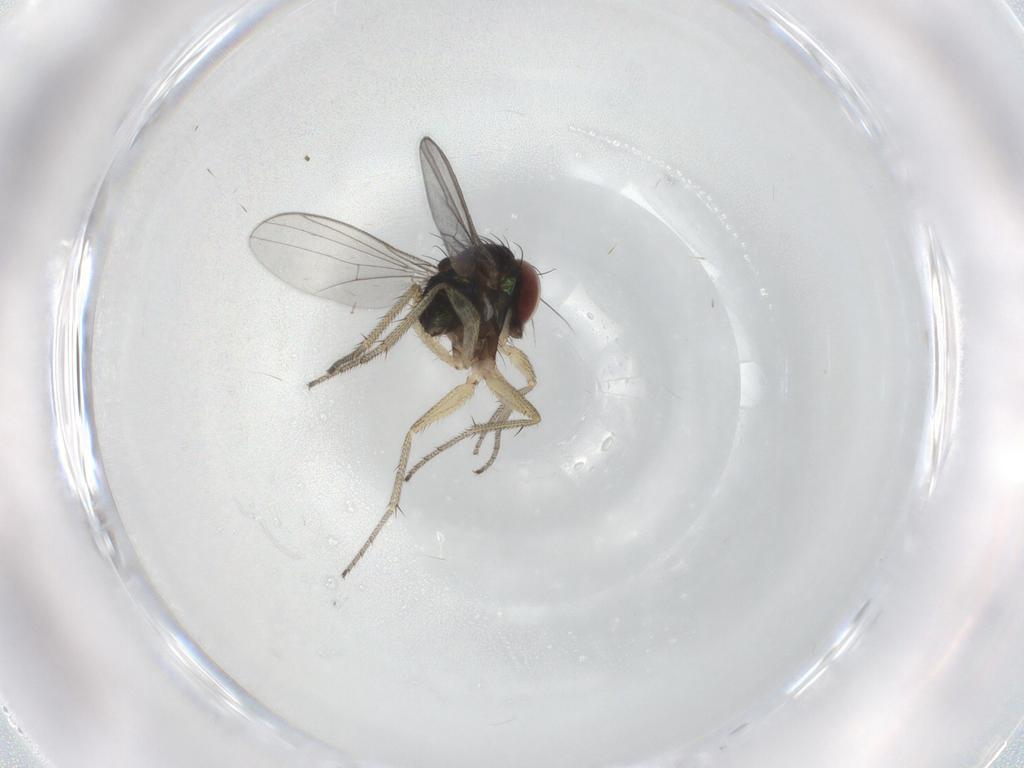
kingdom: Animalia
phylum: Arthropoda
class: Insecta
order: Diptera
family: Dolichopodidae
